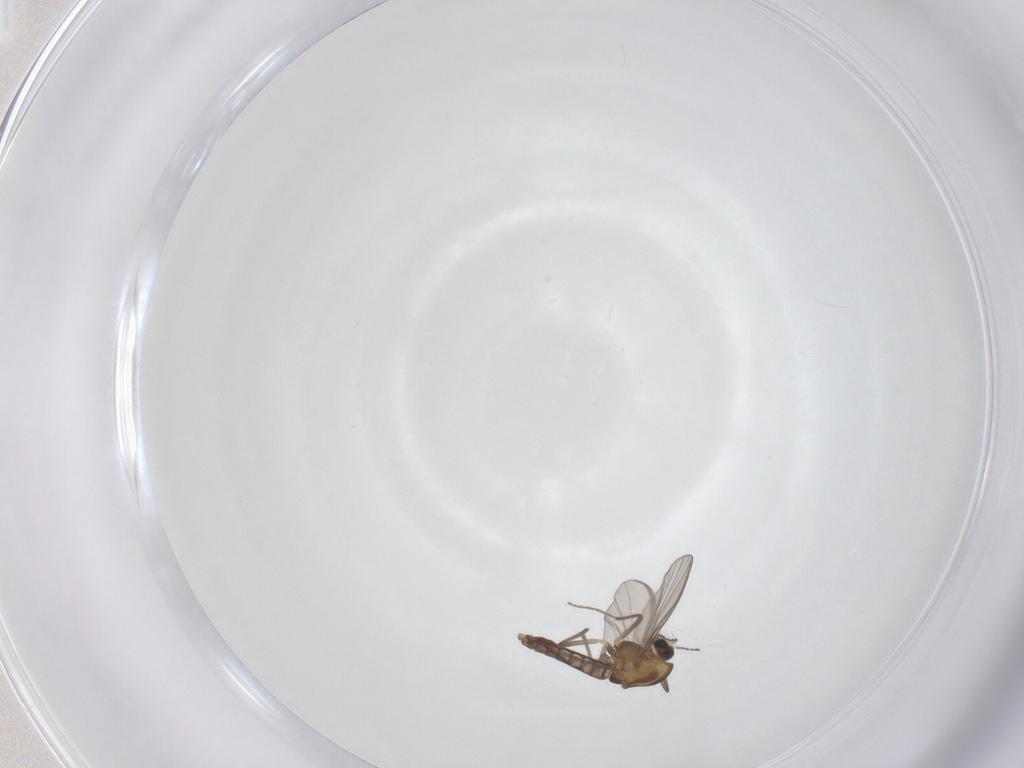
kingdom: Animalia
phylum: Arthropoda
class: Insecta
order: Diptera
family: Chironomidae
